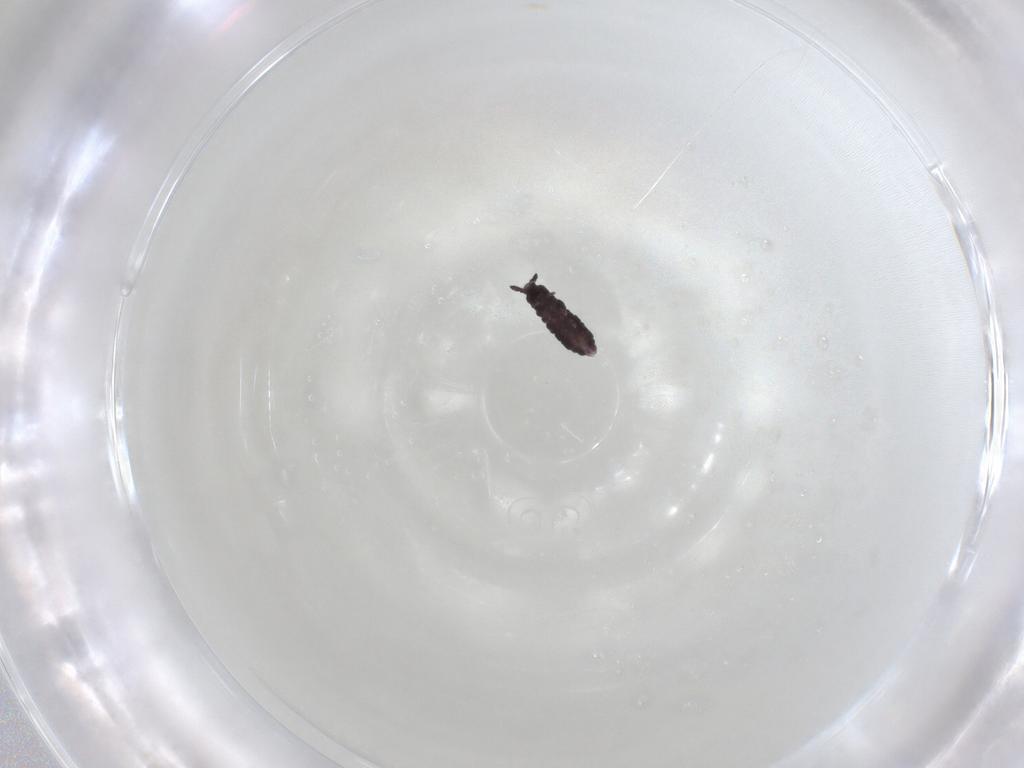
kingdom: Animalia
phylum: Arthropoda
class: Collembola
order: Poduromorpha
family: Hypogastruridae
